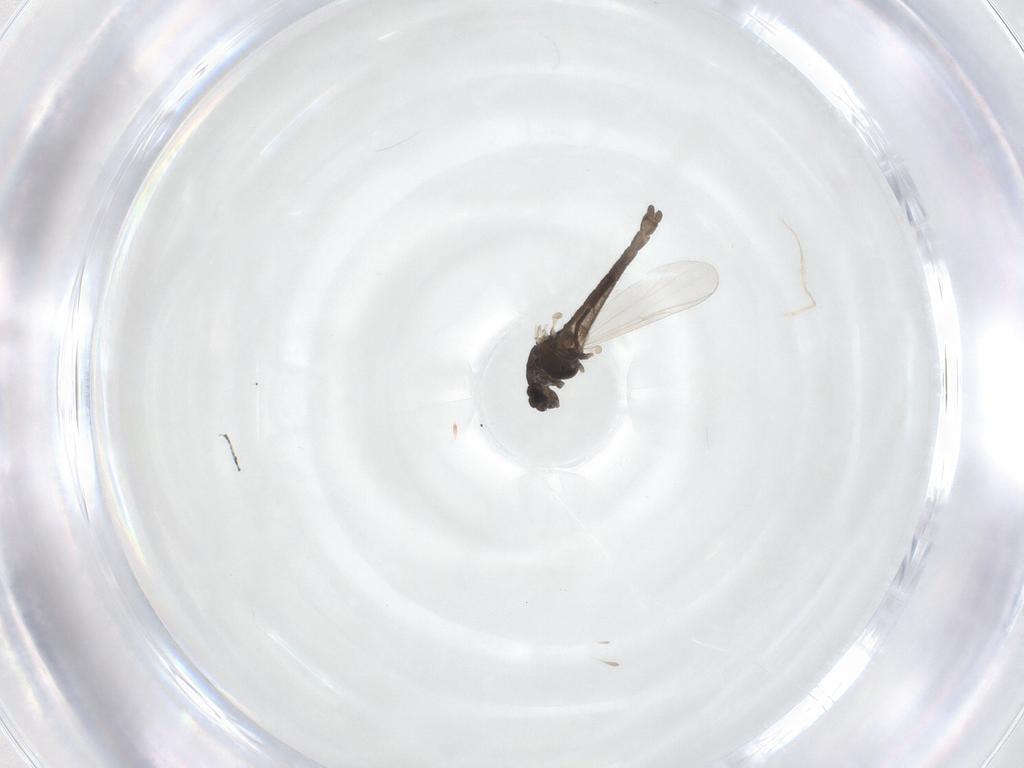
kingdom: Animalia
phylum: Arthropoda
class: Insecta
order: Diptera
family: Chironomidae
